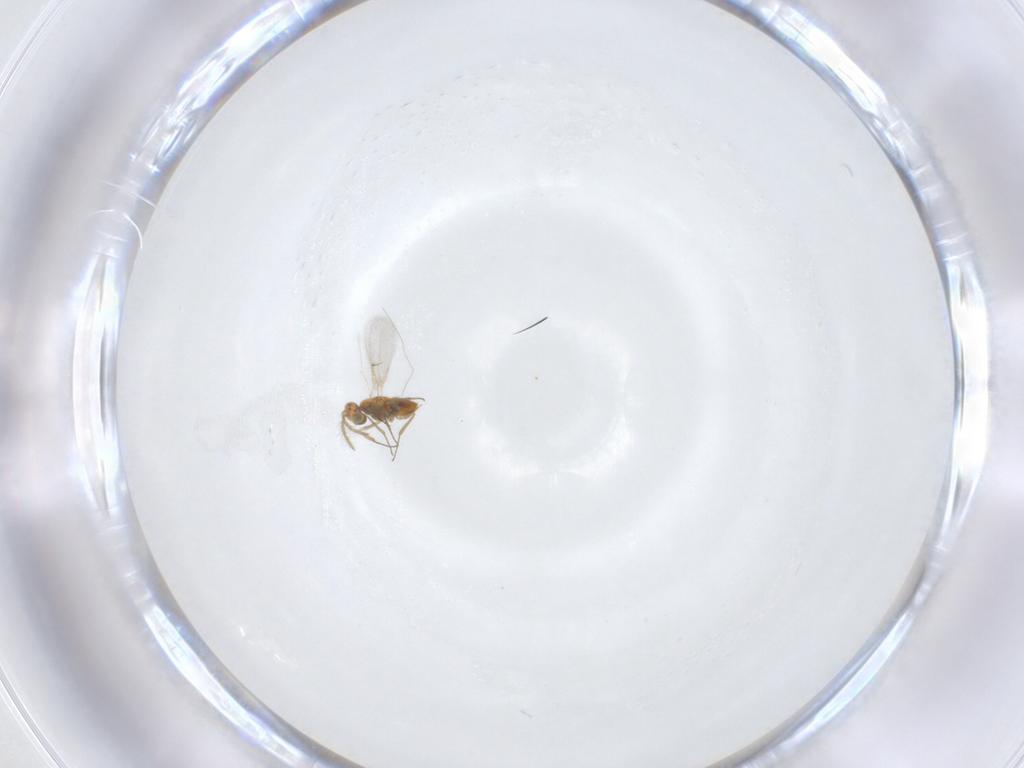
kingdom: Animalia
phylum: Arthropoda
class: Insecta
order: Hymenoptera
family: Aphelinidae
